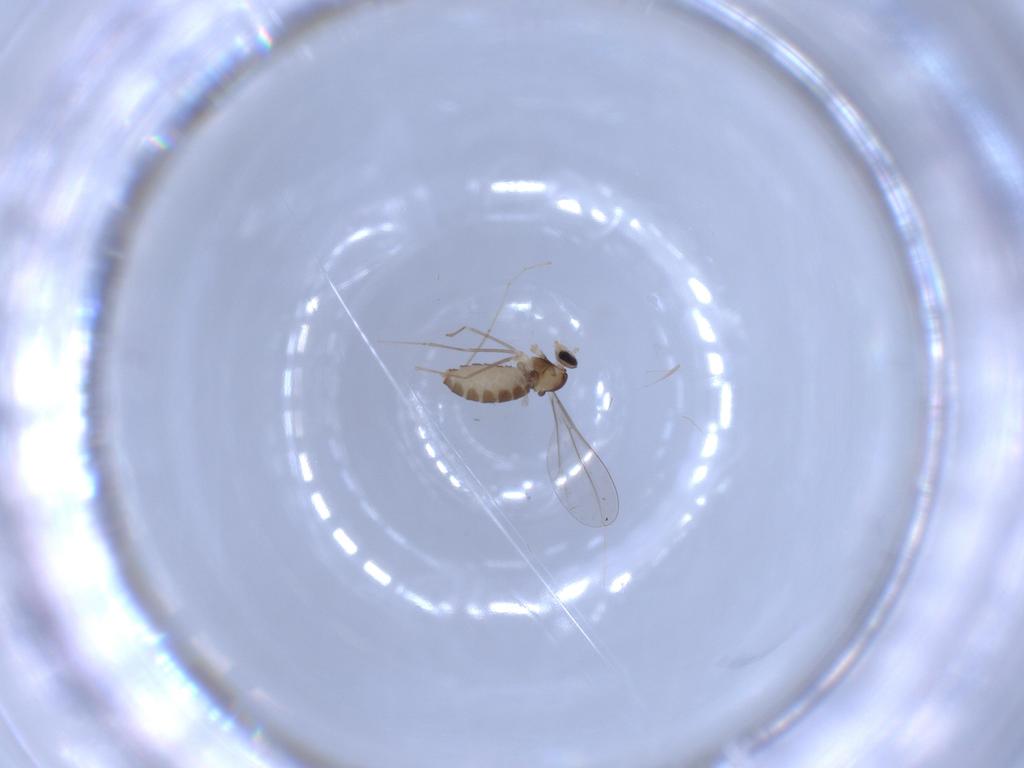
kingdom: Animalia
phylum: Arthropoda
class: Insecta
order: Diptera
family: Cecidomyiidae
